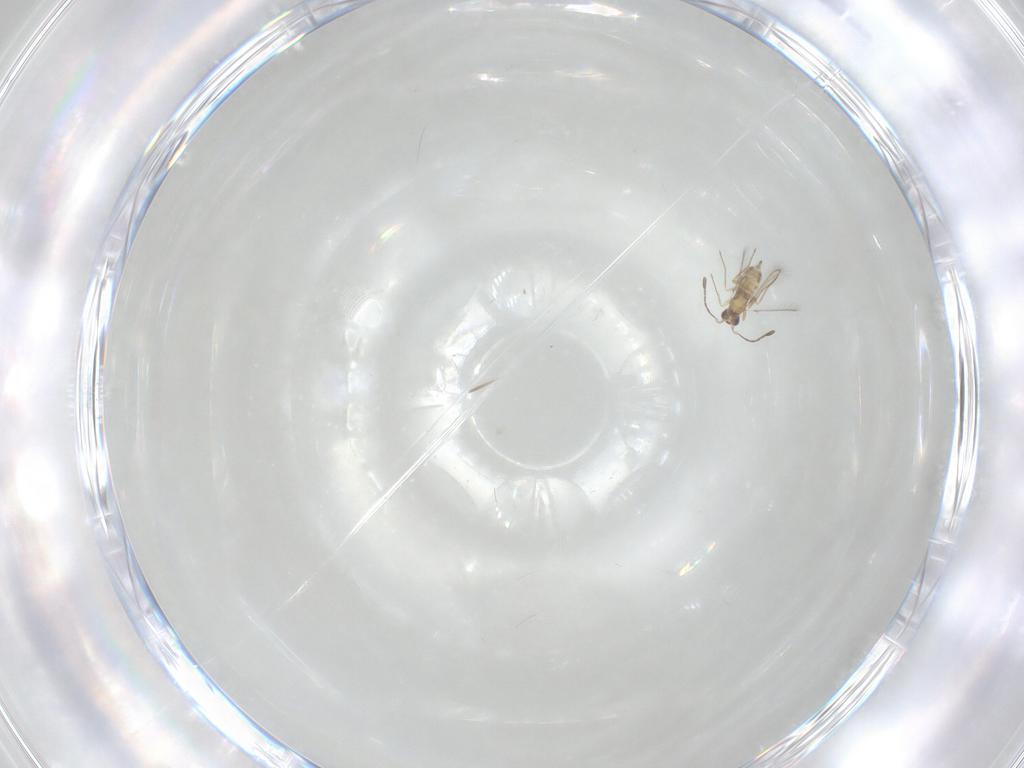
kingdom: Animalia
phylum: Arthropoda
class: Insecta
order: Hymenoptera
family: Mymaridae
